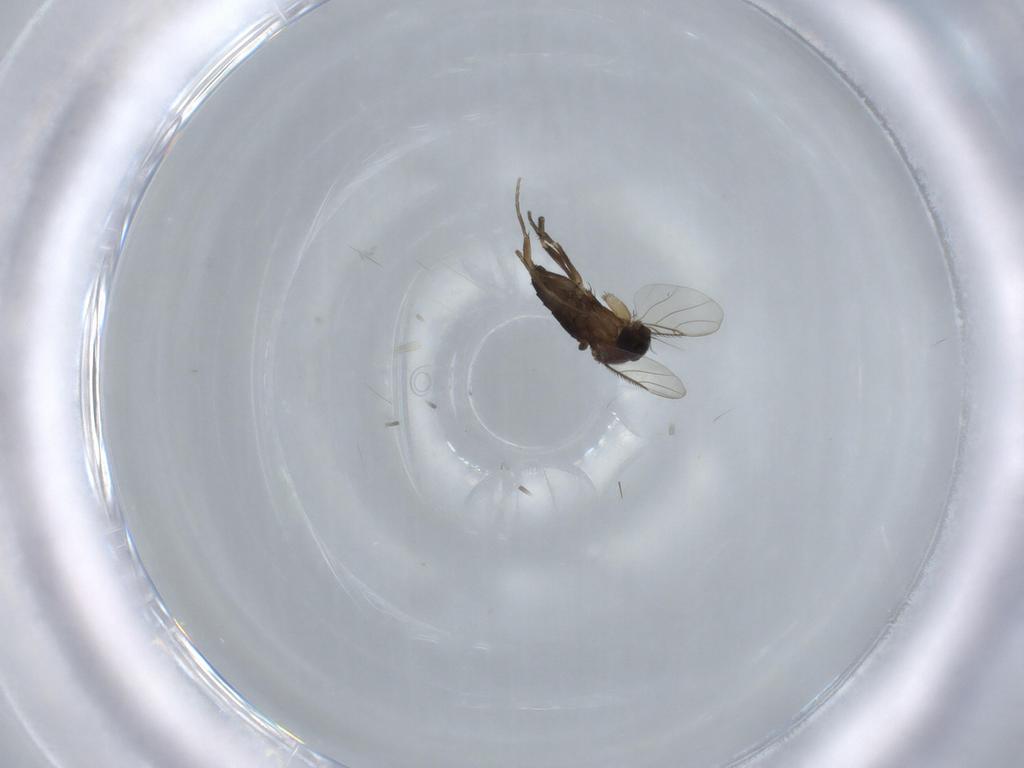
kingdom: Animalia
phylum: Arthropoda
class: Insecta
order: Diptera
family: Phoridae
